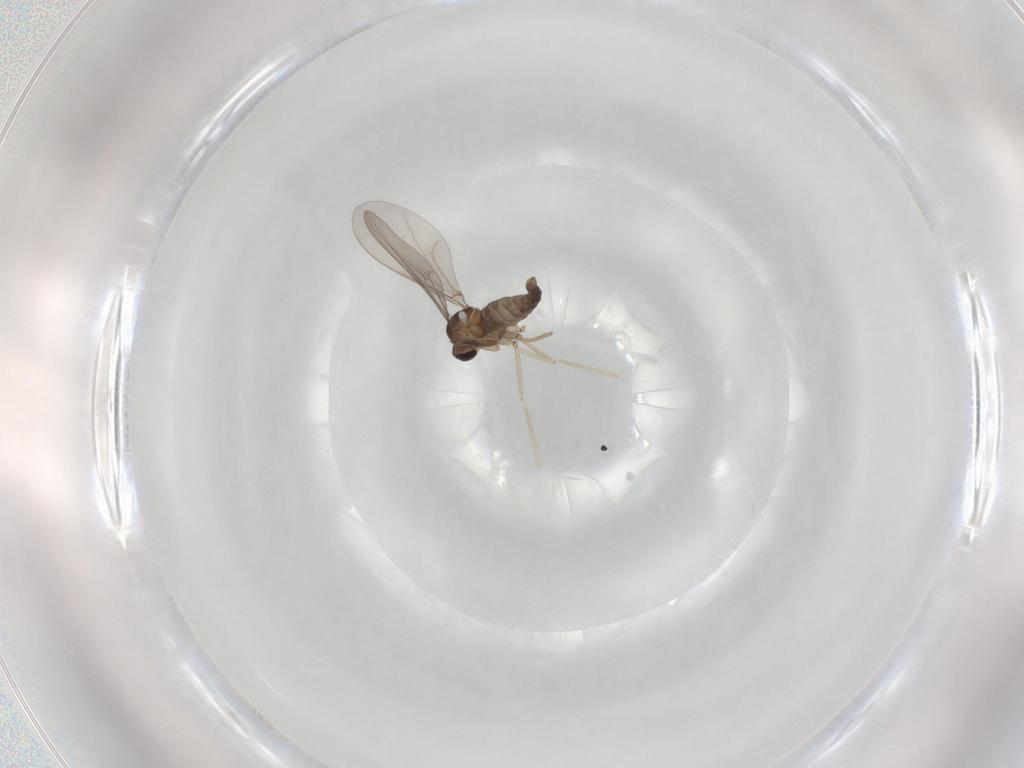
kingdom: Animalia
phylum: Arthropoda
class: Insecta
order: Diptera
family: Cecidomyiidae
